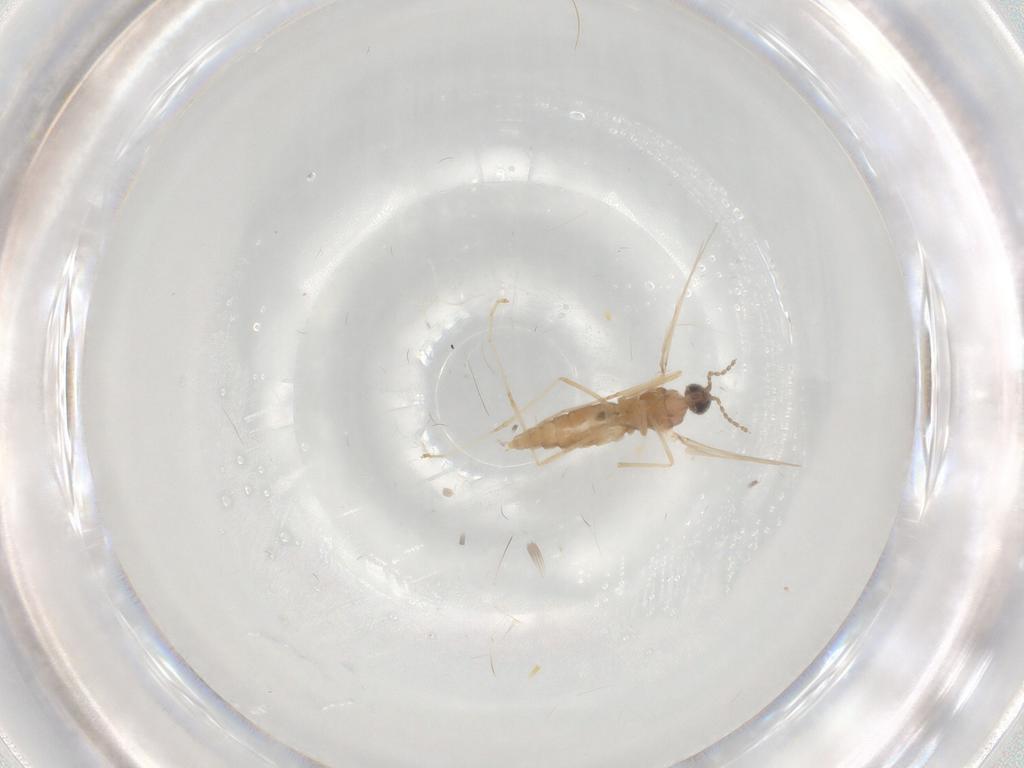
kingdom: Animalia
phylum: Arthropoda
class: Insecta
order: Diptera
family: Cecidomyiidae
